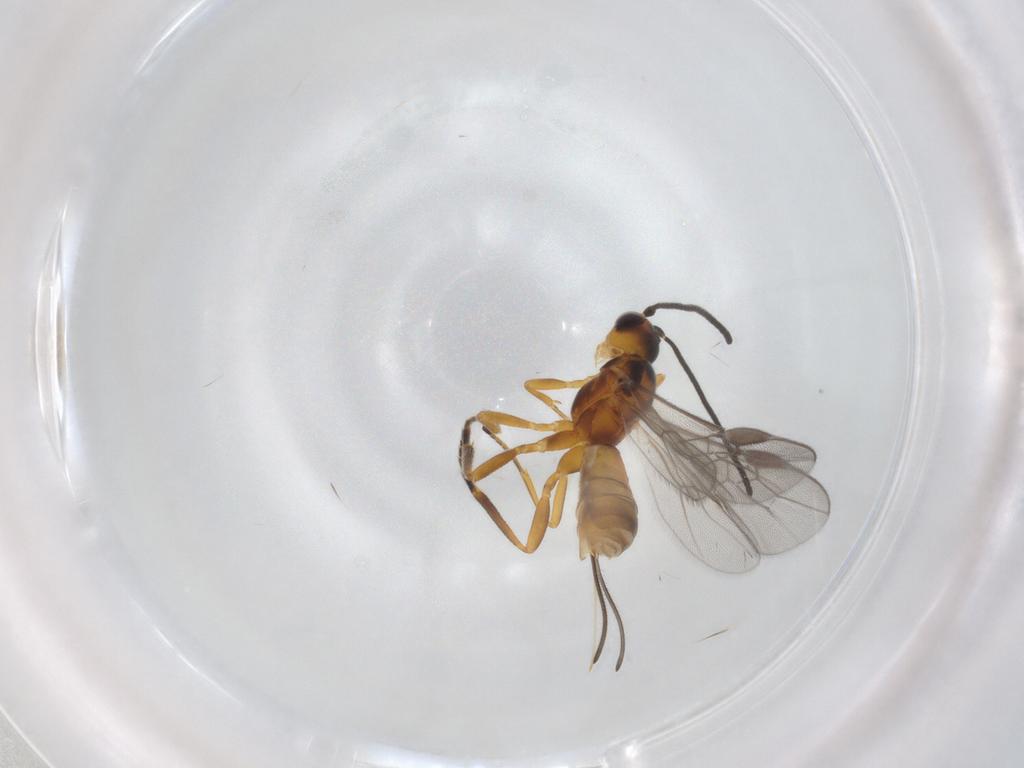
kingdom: Animalia
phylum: Arthropoda
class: Insecta
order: Hymenoptera
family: Braconidae
